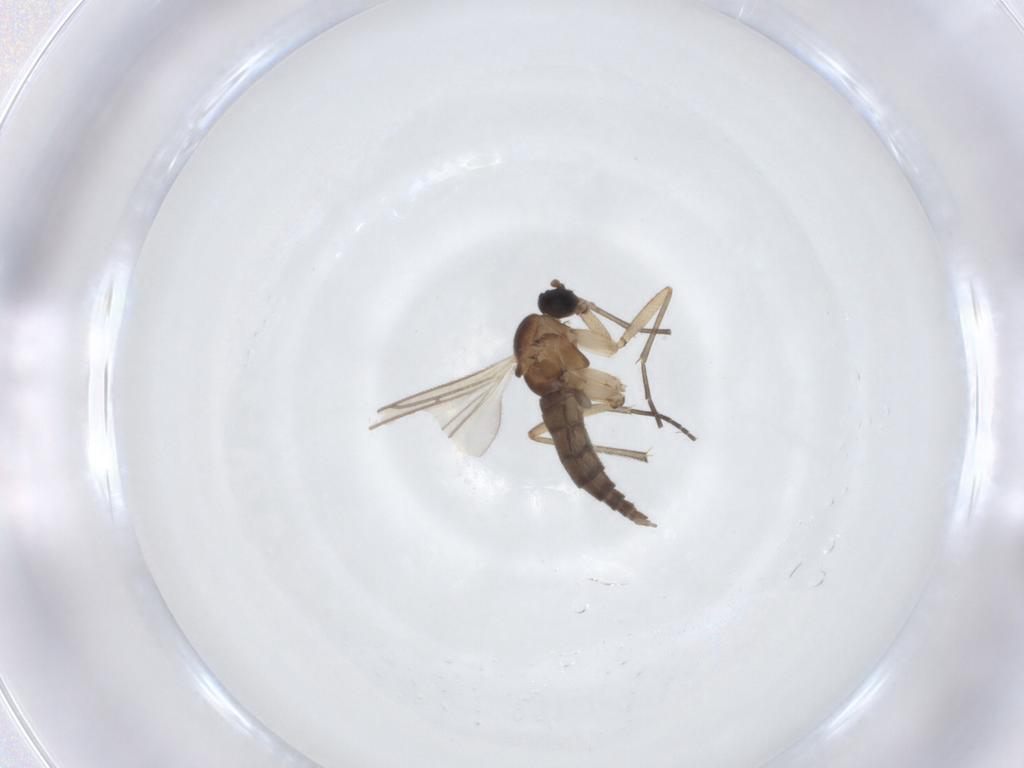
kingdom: Animalia
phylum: Arthropoda
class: Insecta
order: Diptera
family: Sciaridae
